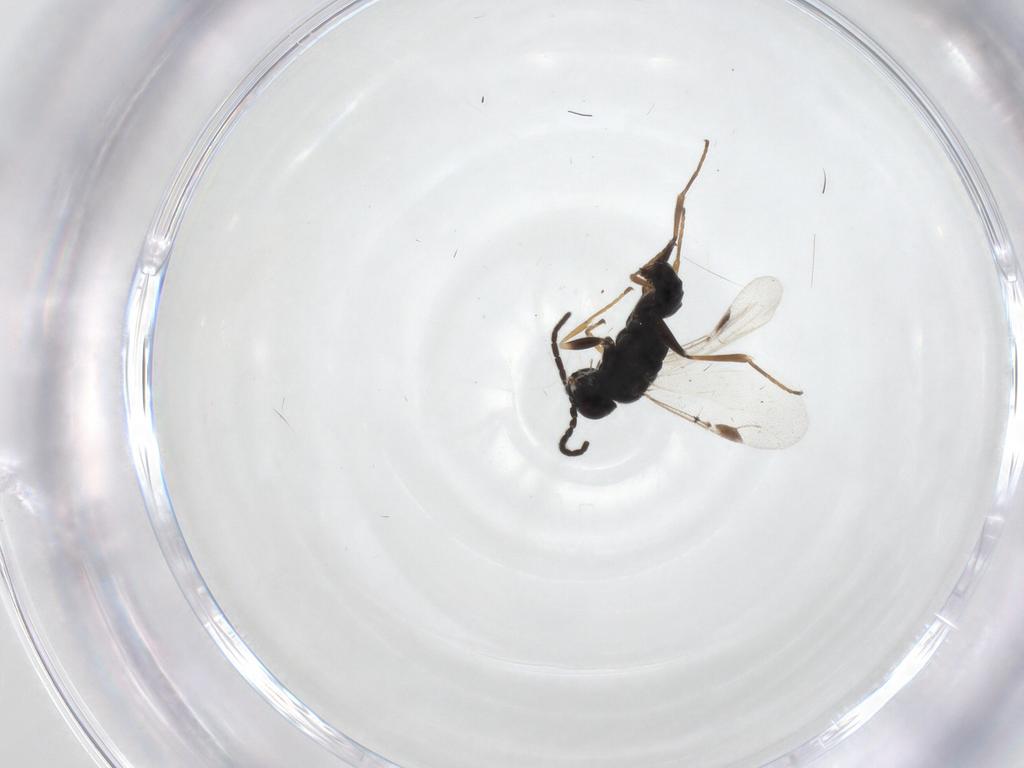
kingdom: Animalia
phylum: Arthropoda
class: Insecta
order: Hymenoptera
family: Dryinidae
